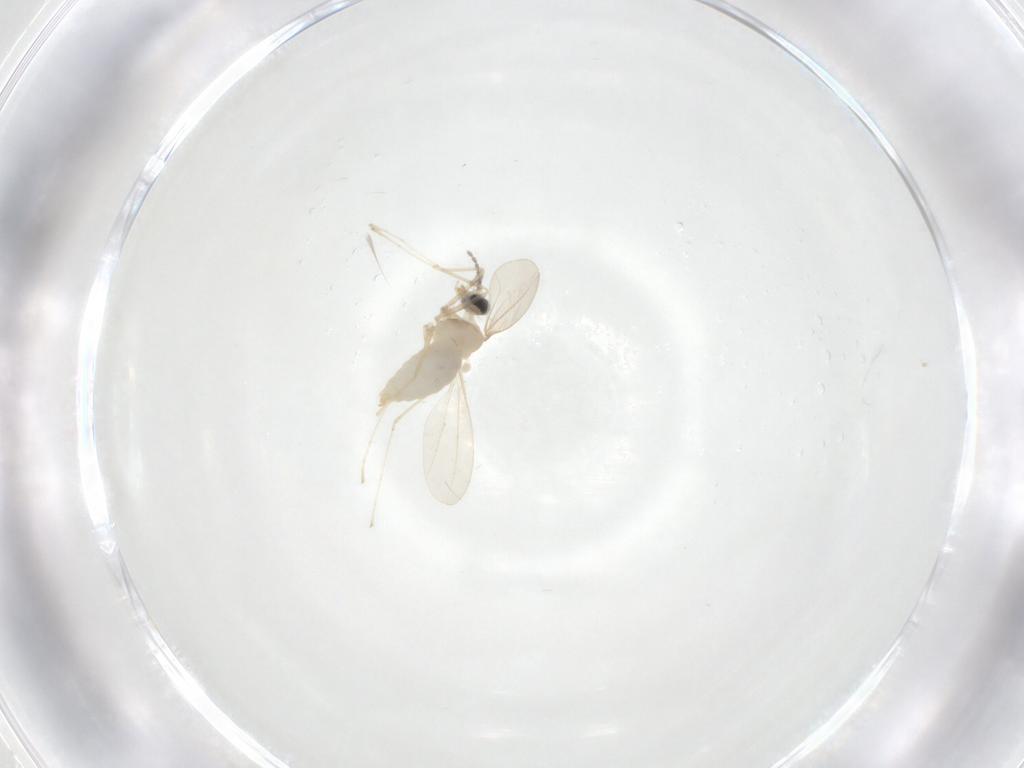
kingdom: Animalia
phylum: Arthropoda
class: Insecta
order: Diptera
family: Cecidomyiidae
